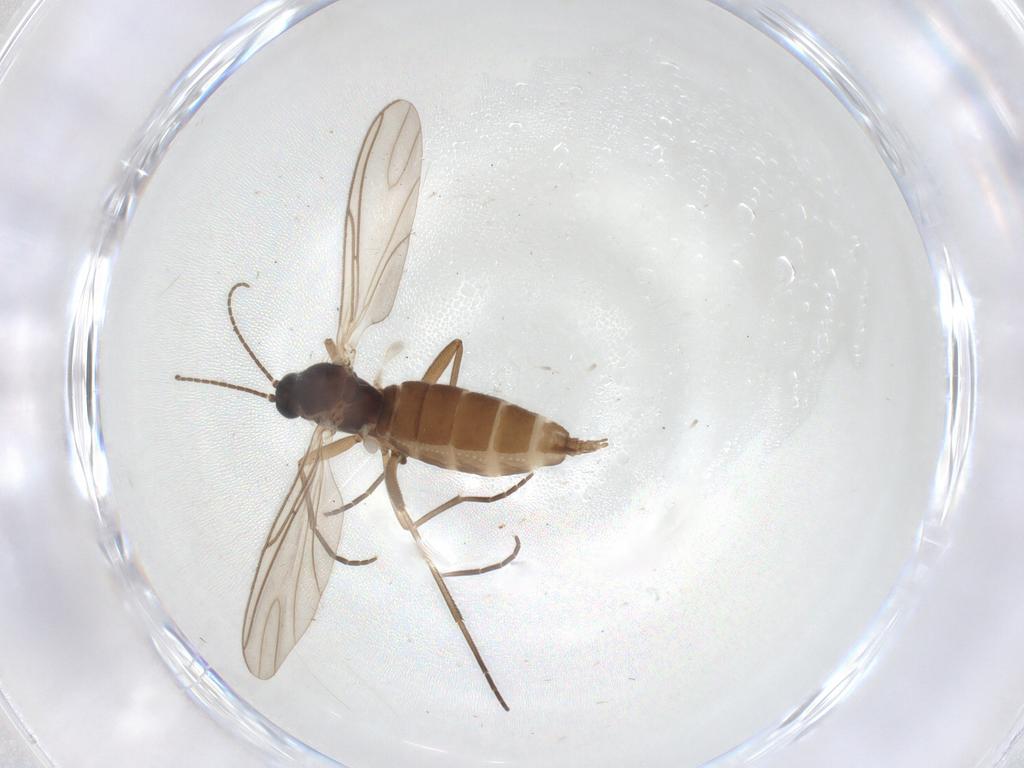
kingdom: Animalia
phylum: Arthropoda
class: Insecta
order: Diptera
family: Sciaridae
